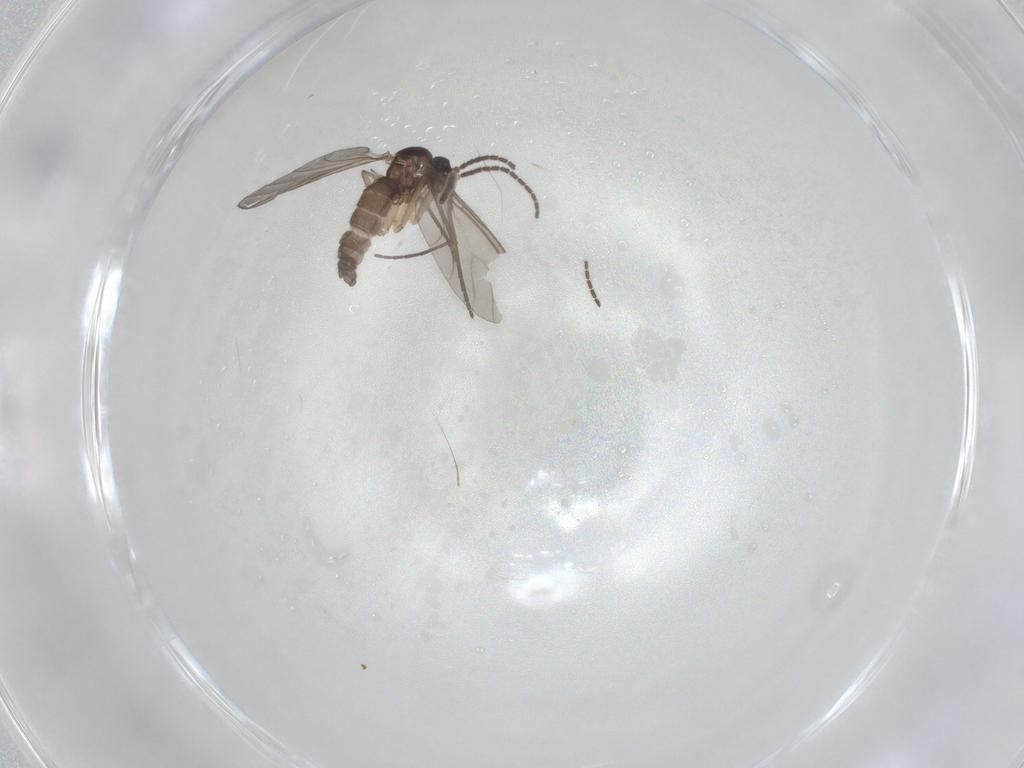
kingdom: Animalia
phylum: Arthropoda
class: Insecta
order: Diptera
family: Sciaridae
